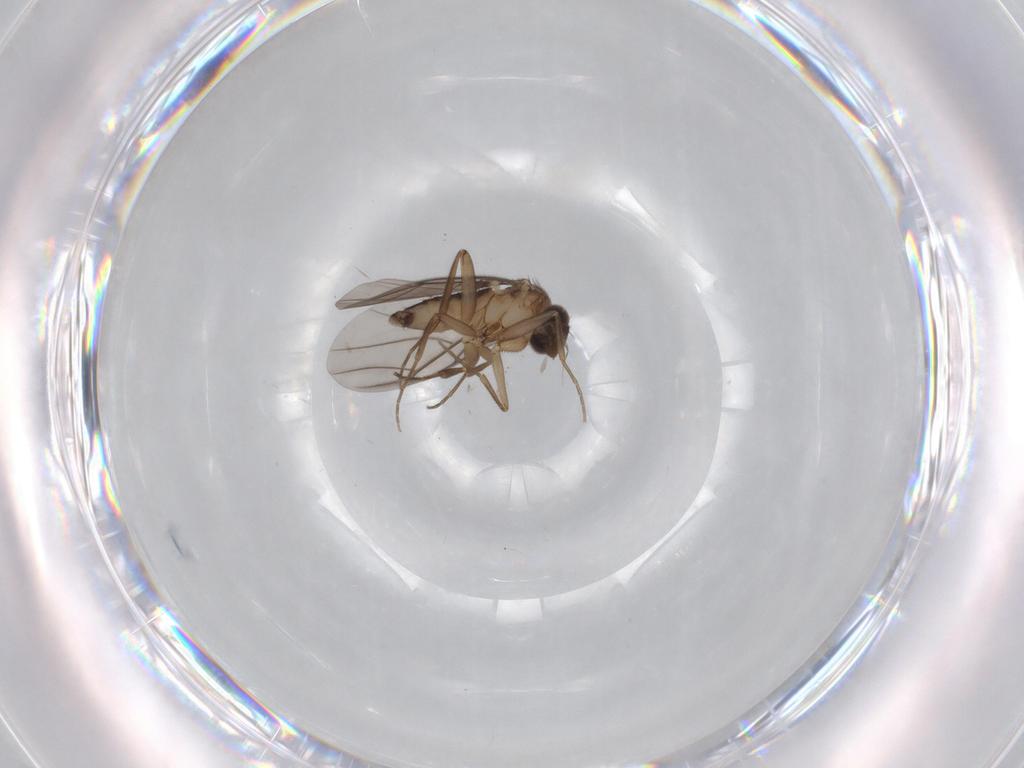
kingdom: Animalia
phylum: Arthropoda
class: Insecta
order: Diptera
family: Phoridae
